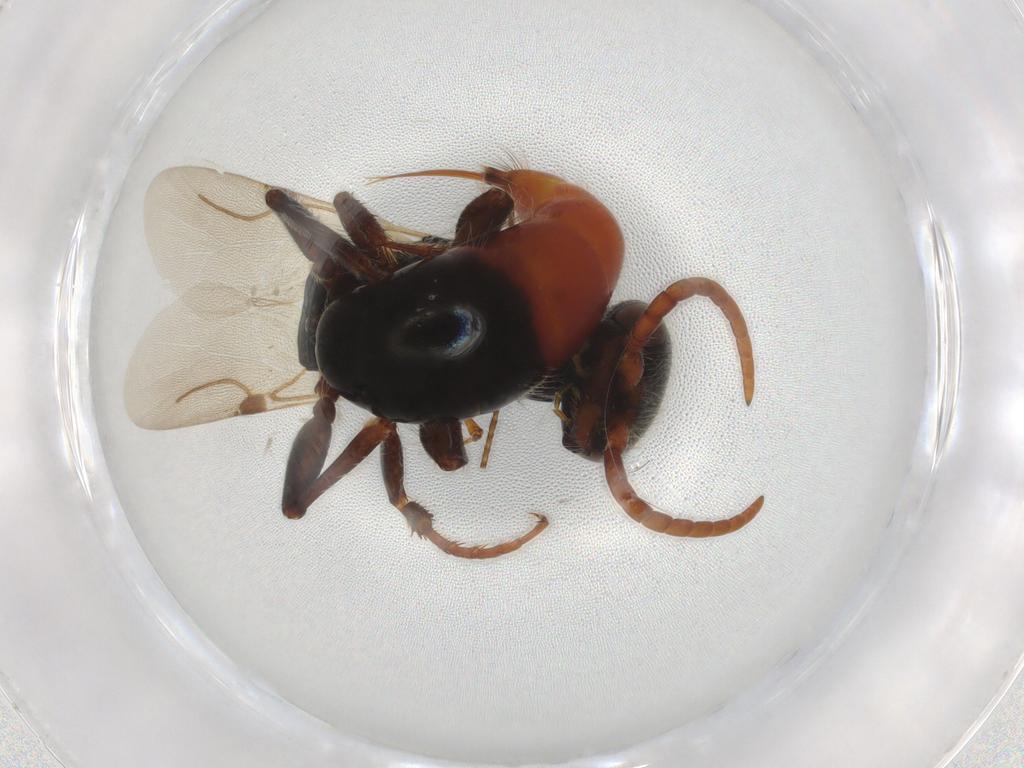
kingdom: Animalia
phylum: Arthropoda
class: Insecta
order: Hymenoptera
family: Bethylidae
